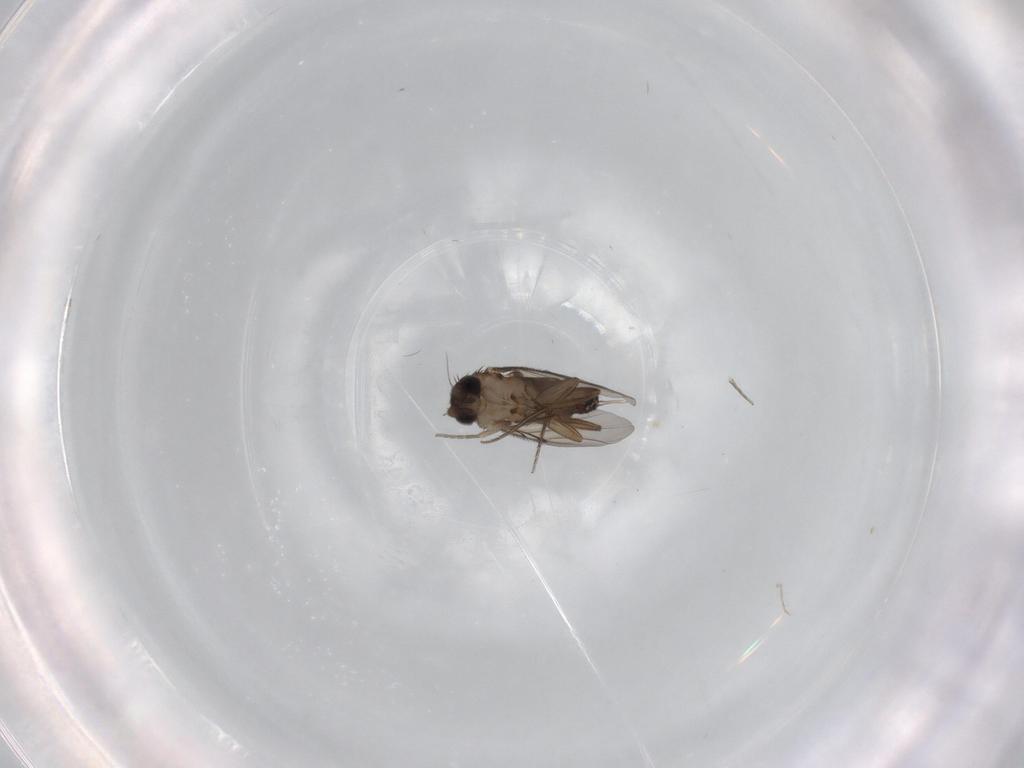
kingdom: Animalia
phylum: Arthropoda
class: Insecta
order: Diptera
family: Phoridae
